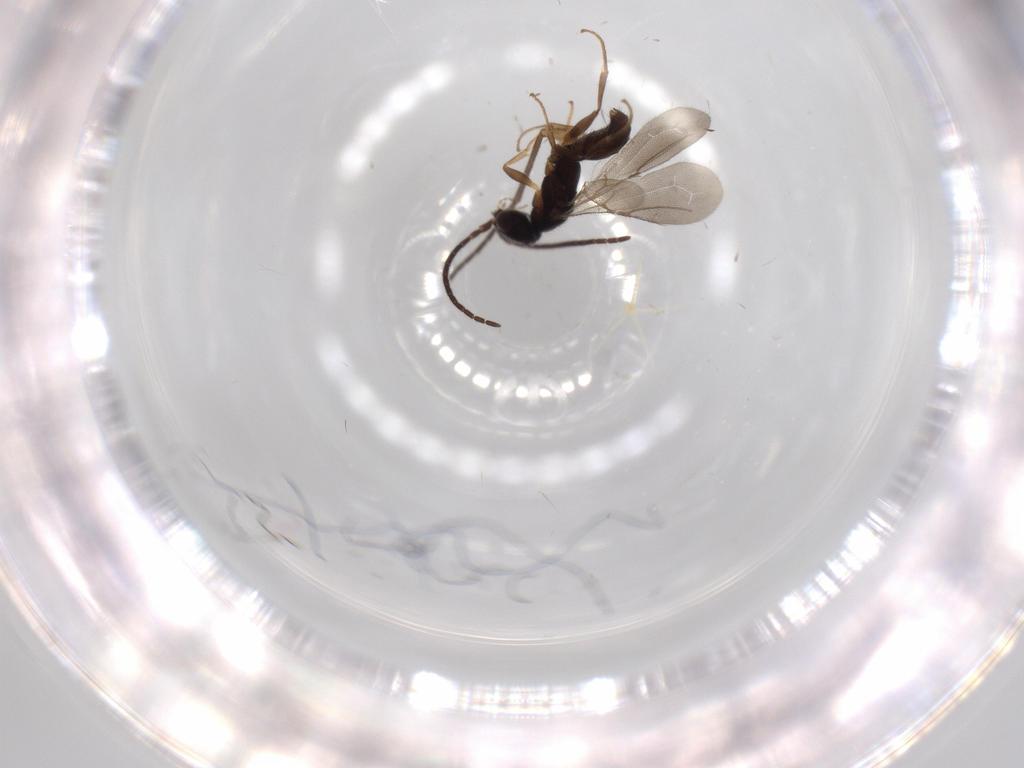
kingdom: Animalia
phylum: Arthropoda
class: Insecta
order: Hymenoptera
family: Bethylidae
